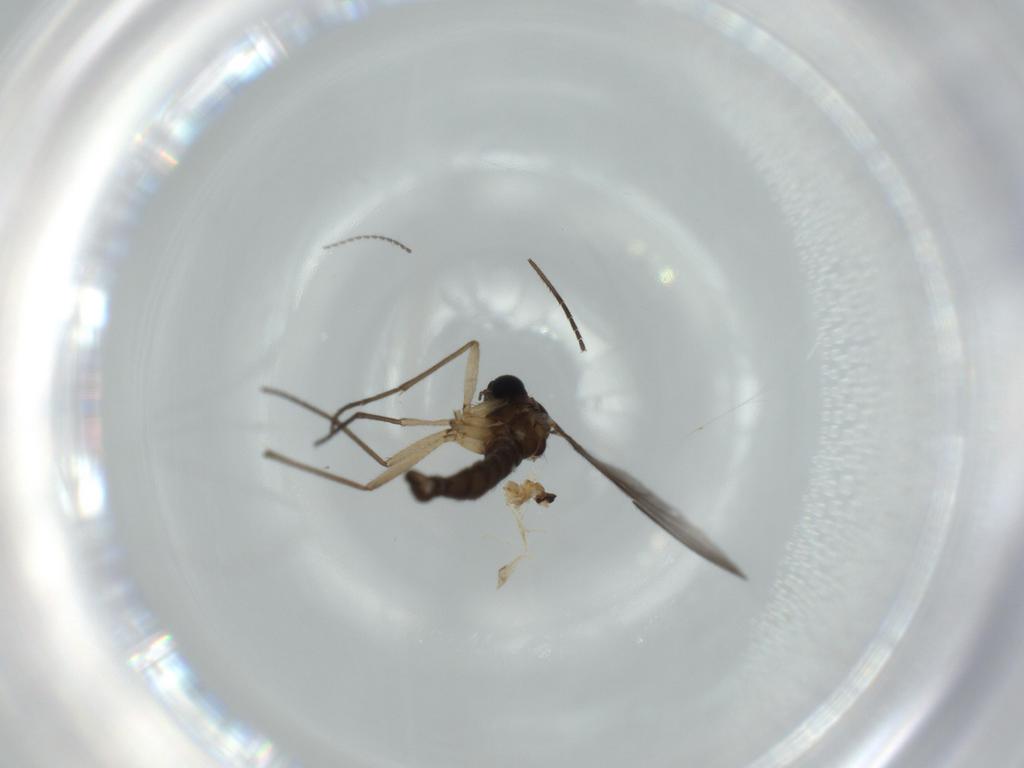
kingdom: Animalia
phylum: Arthropoda
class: Insecta
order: Diptera
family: Sciaridae
